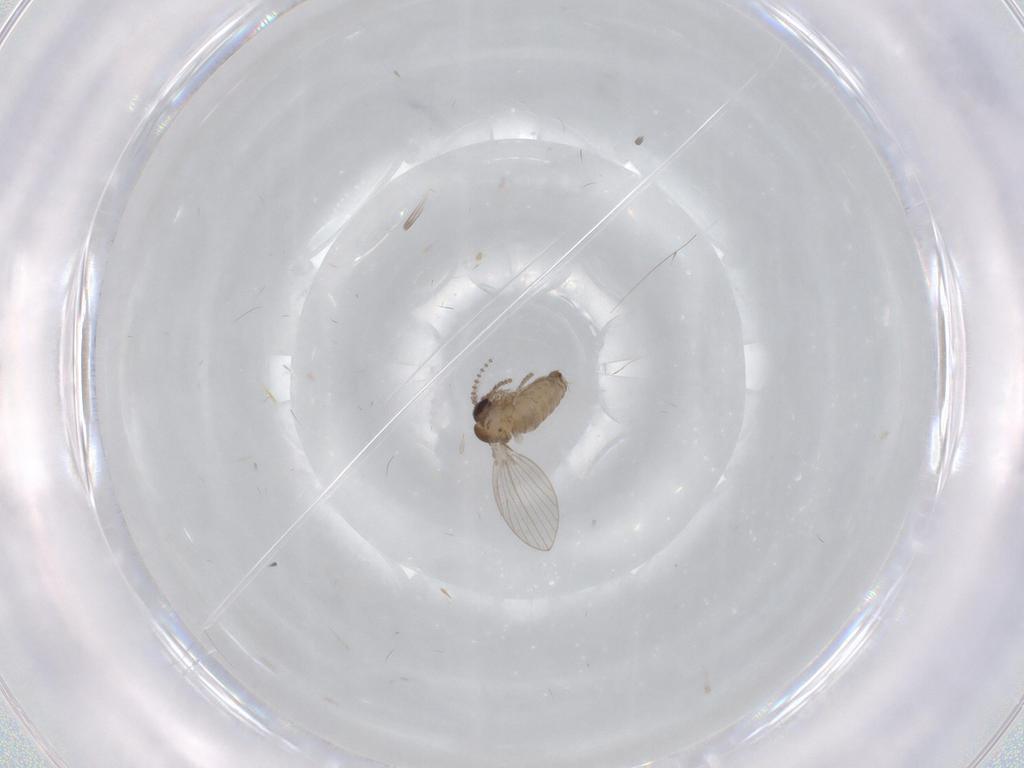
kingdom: Animalia
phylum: Arthropoda
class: Insecta
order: Diptera
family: Psychodidae
